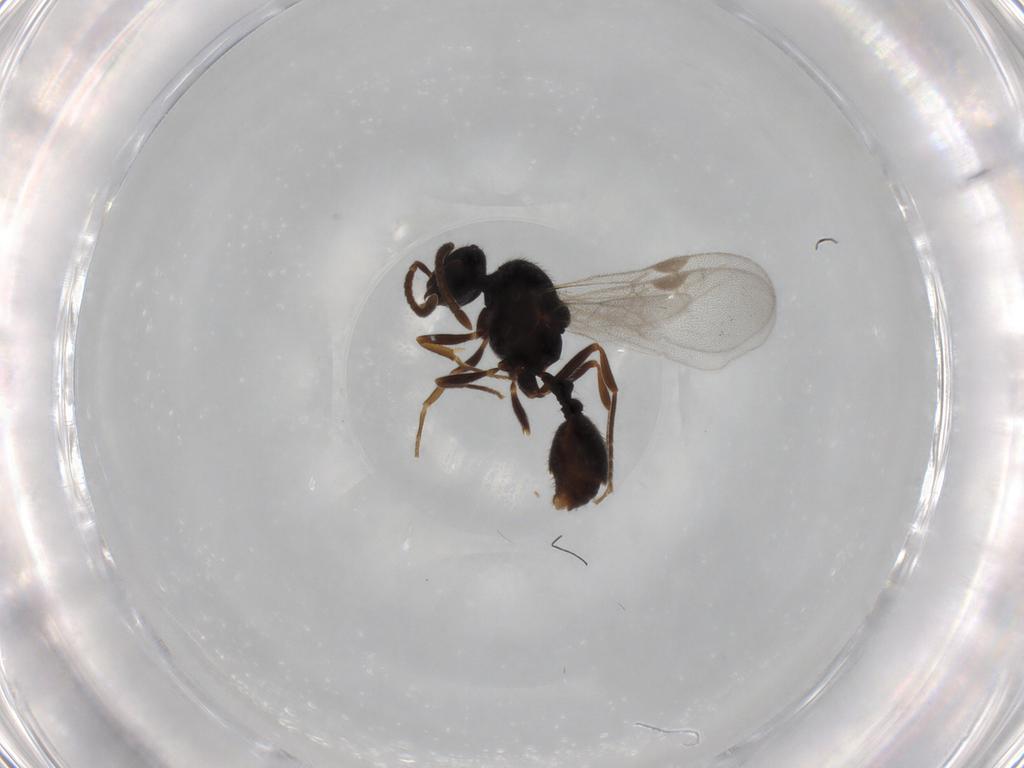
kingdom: Animalia
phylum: Arthropoda
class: Insecta
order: Hymenoptera
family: Formicidae
